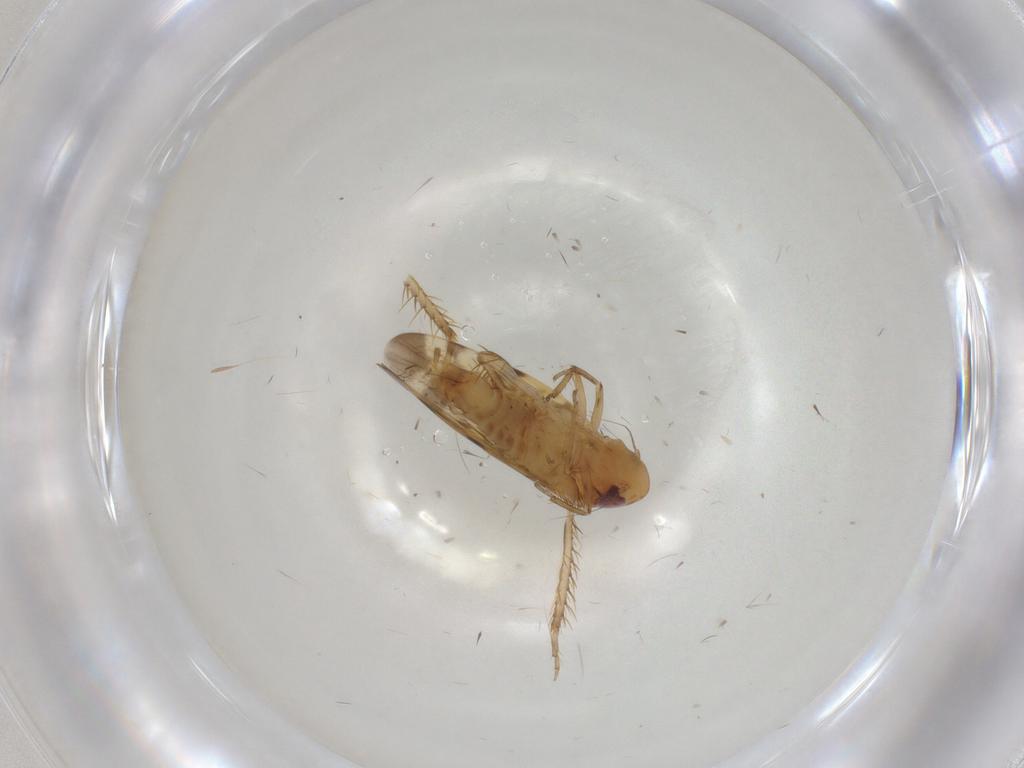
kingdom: Animalia
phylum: Arthropoda
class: Insecta
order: Hemiptera
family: Cicadellidae
